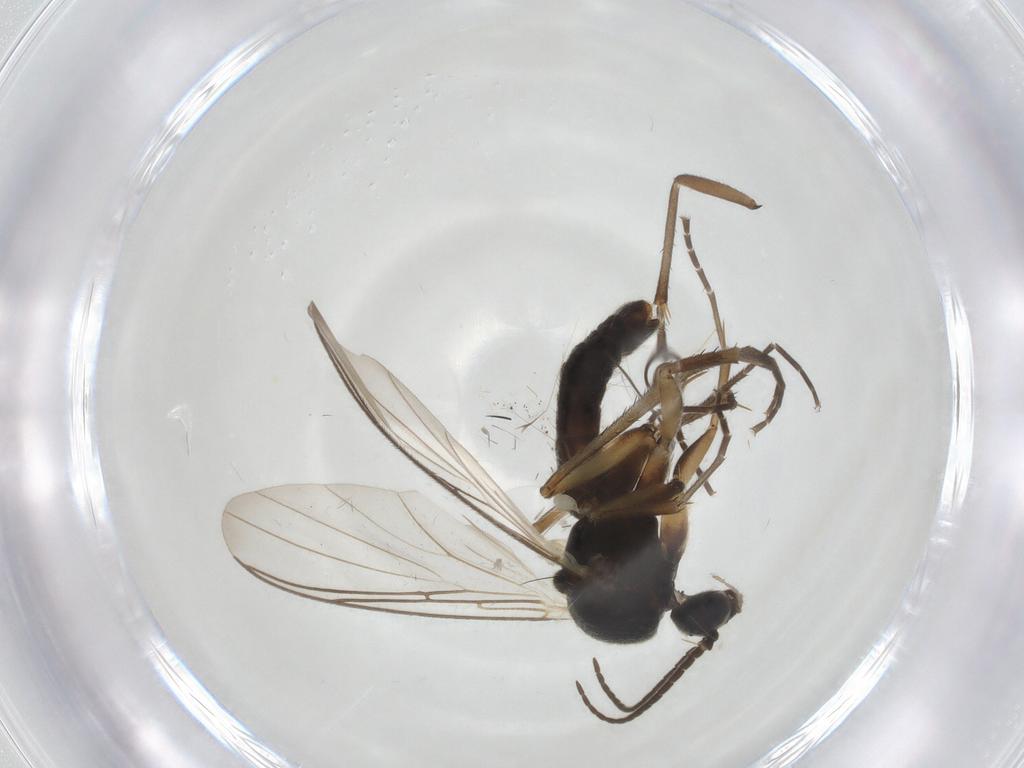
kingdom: Animalia
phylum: Arthropoda
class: Insecta
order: Diptera
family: Mycetophilidae
